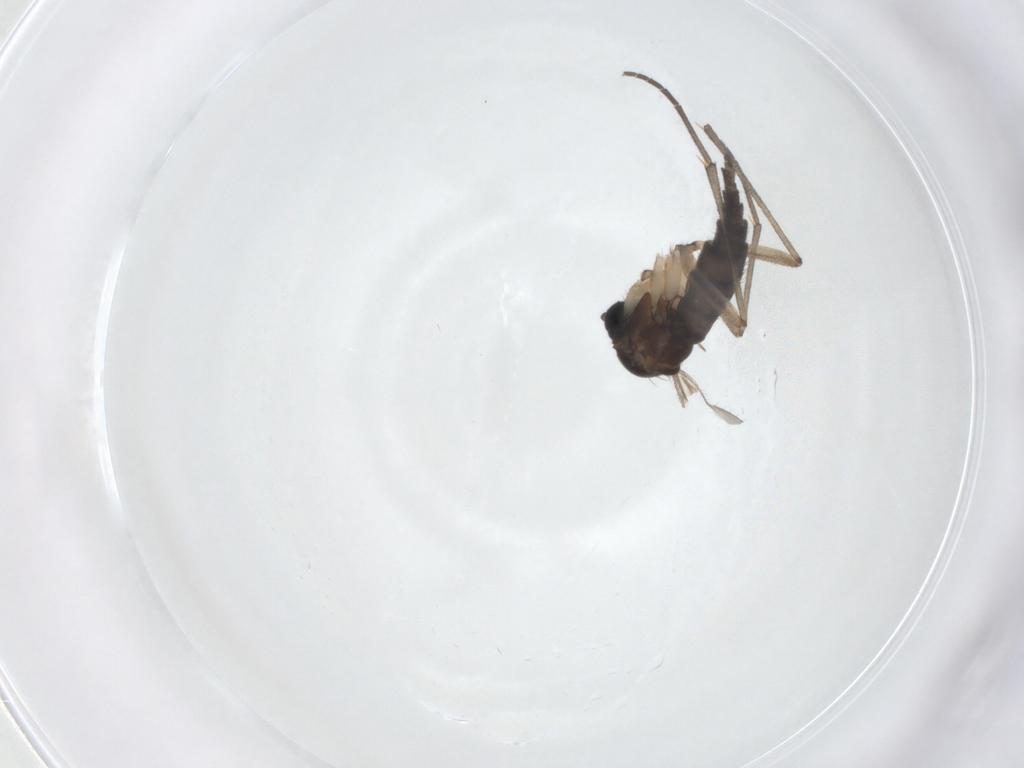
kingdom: Animalia
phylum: Arthropoda
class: Insecta
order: Diptera
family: Sciaridae
